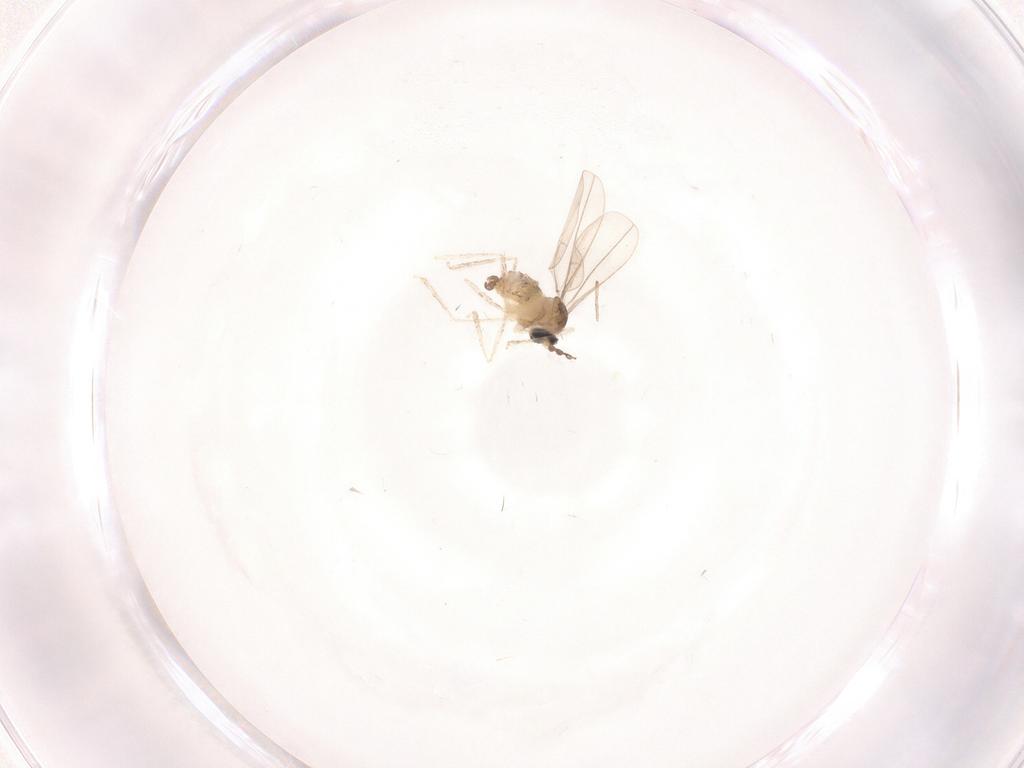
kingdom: Animalia
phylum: Arthropoda
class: Insecta
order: Diptera
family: Cecidomyiidae
